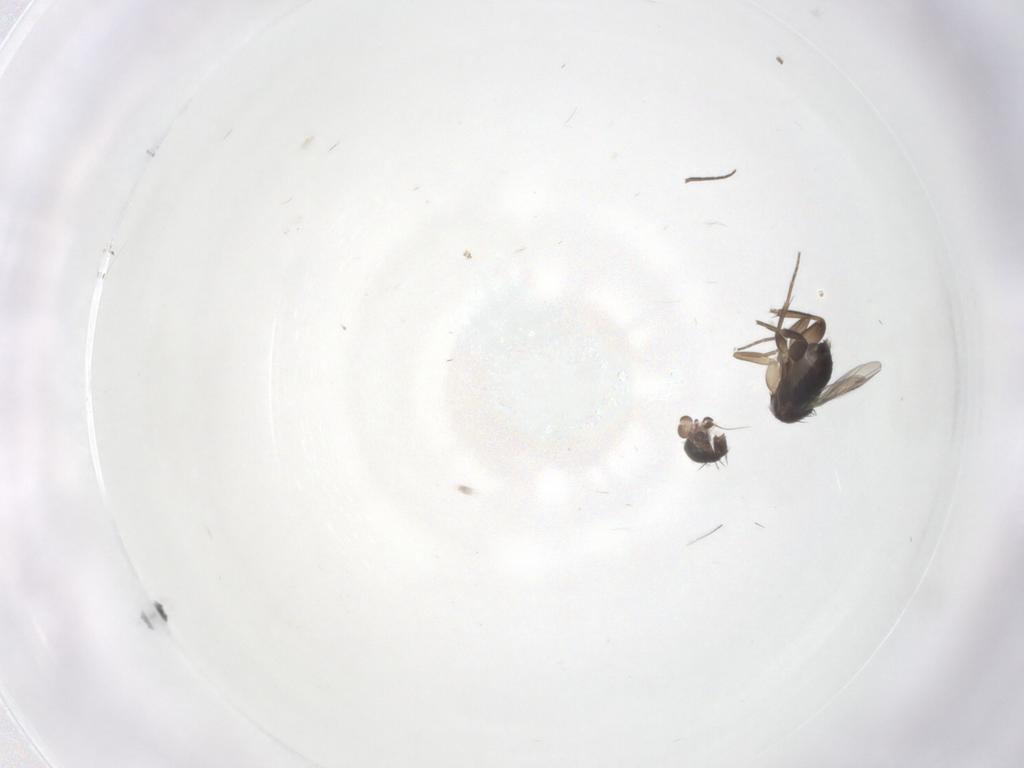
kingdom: Animalia
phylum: Arthropoda
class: Insecta
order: Diptera
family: Phoridae
